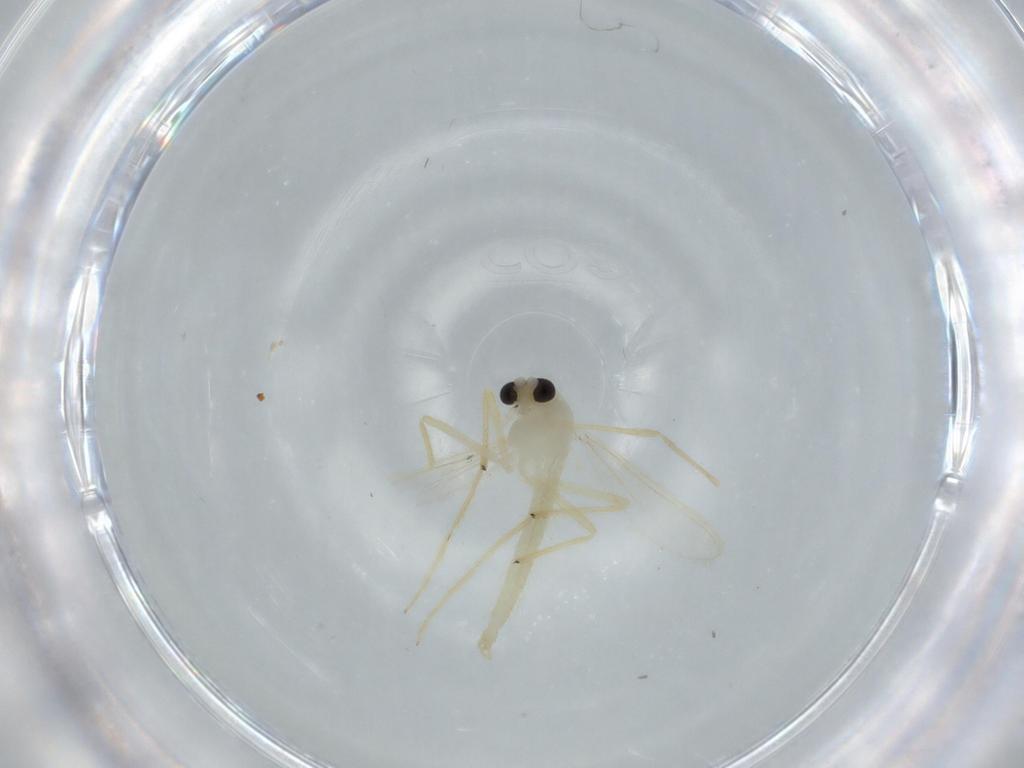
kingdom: Animalia
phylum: Arthropoda
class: Insecta
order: Diptera
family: Chironomidae
